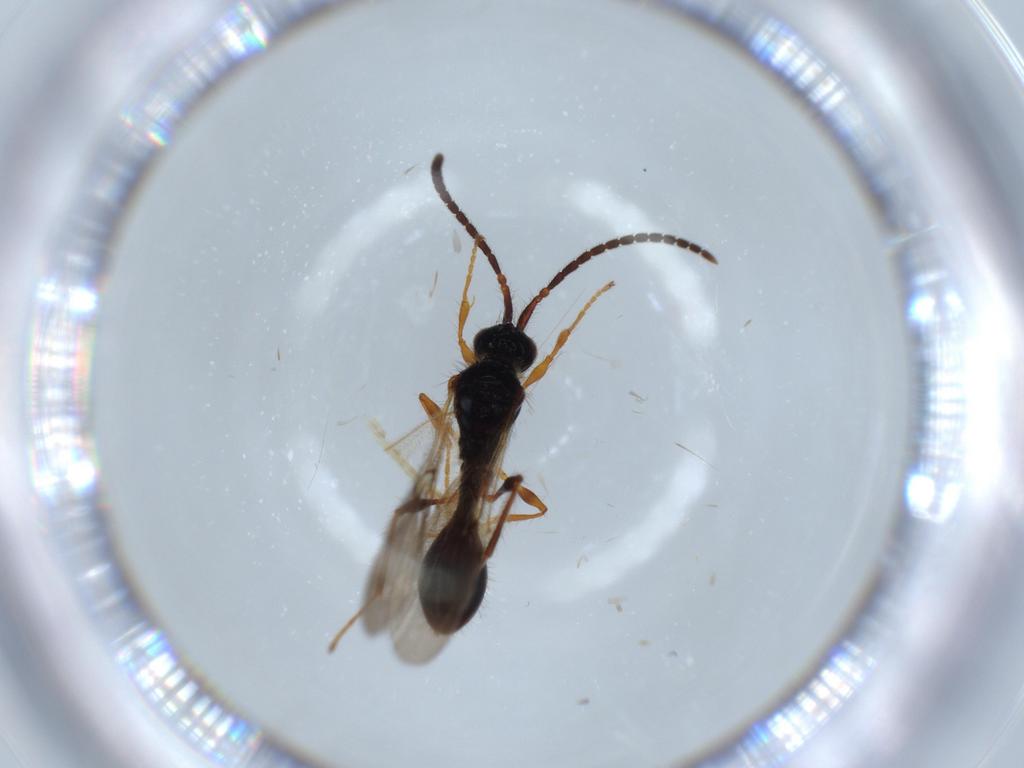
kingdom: Animalia
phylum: Arthropoda
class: Insecta
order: Hymenoptera
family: Diapriidae
